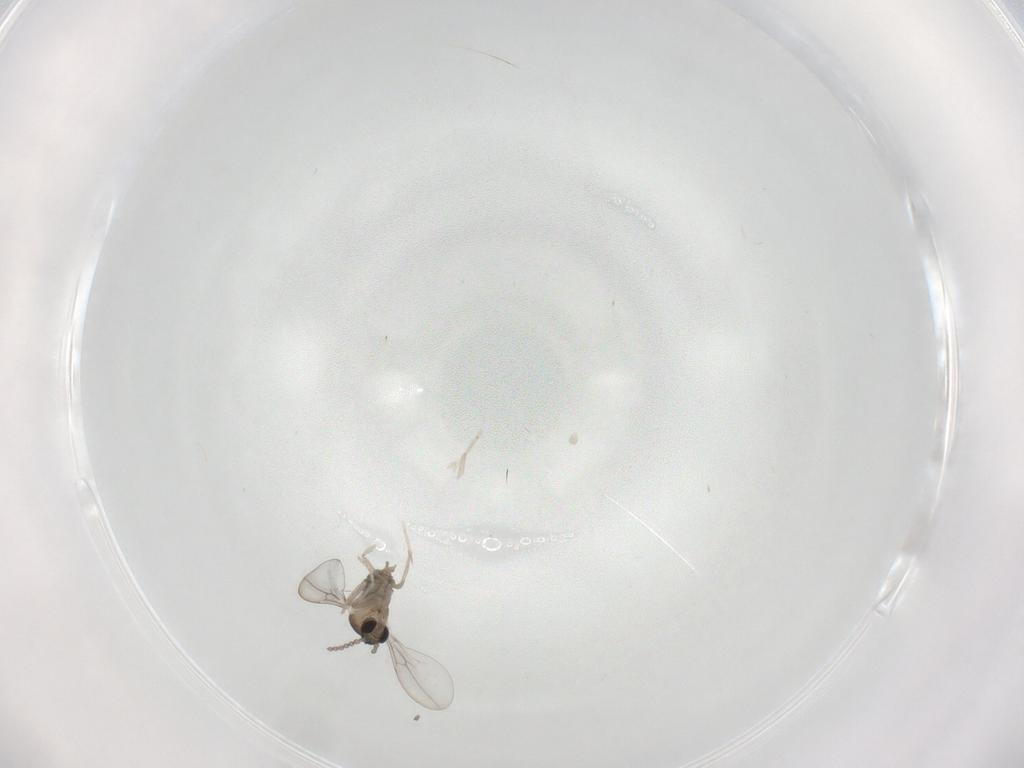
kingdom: Animalia
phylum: Arthropoda
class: Insecta
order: Diptera
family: Cecidomyiidae
